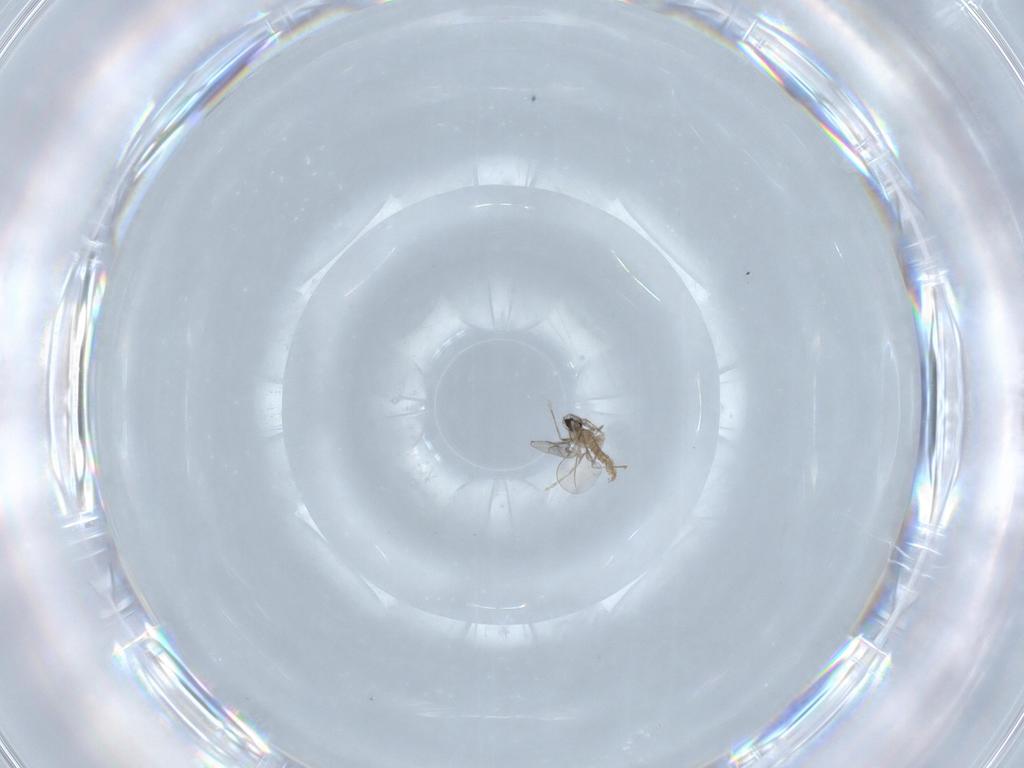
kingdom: Animalia
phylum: Arthropoda
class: Insecta
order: Diptera
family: Cecidomyiidae
